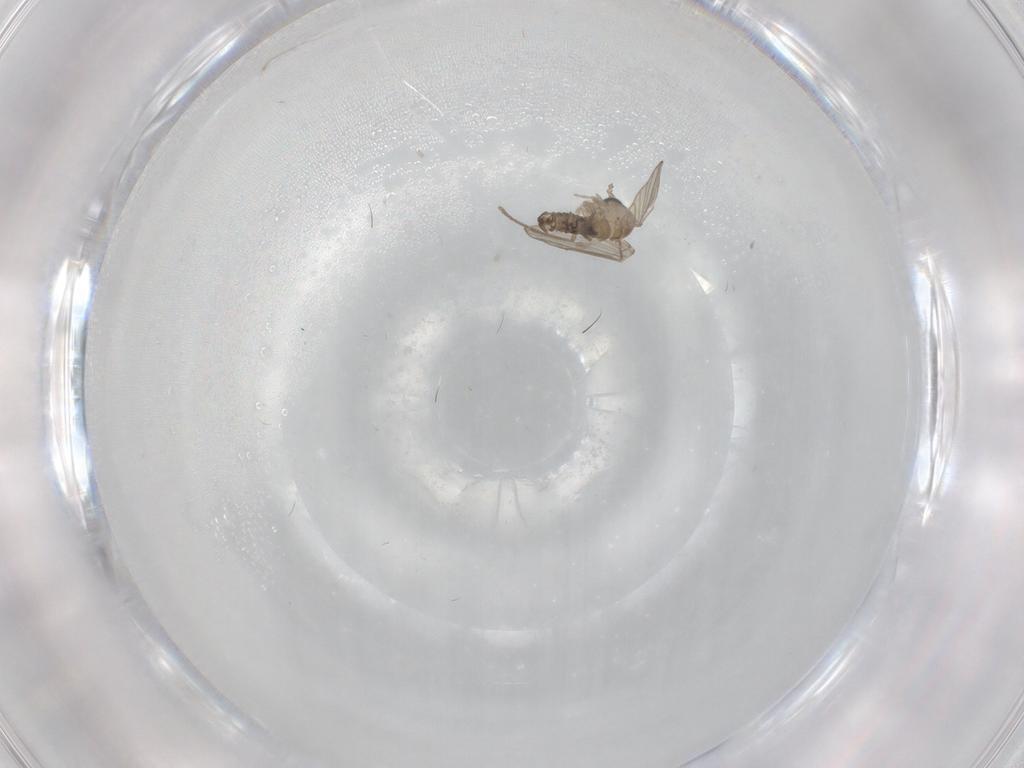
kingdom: Animalia
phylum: Arthropoda
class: Insecta
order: Diptera
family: Psychodidae
